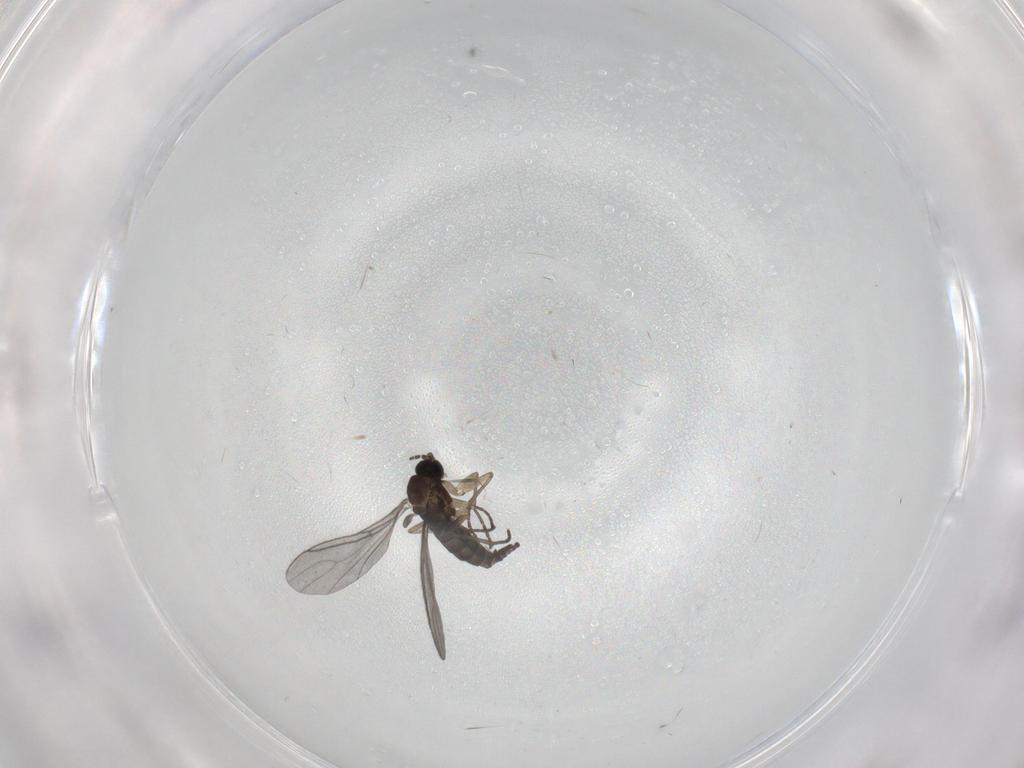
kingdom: Animalia
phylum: Arthropoda
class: Insecta
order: Diptera
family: Sciaridae
